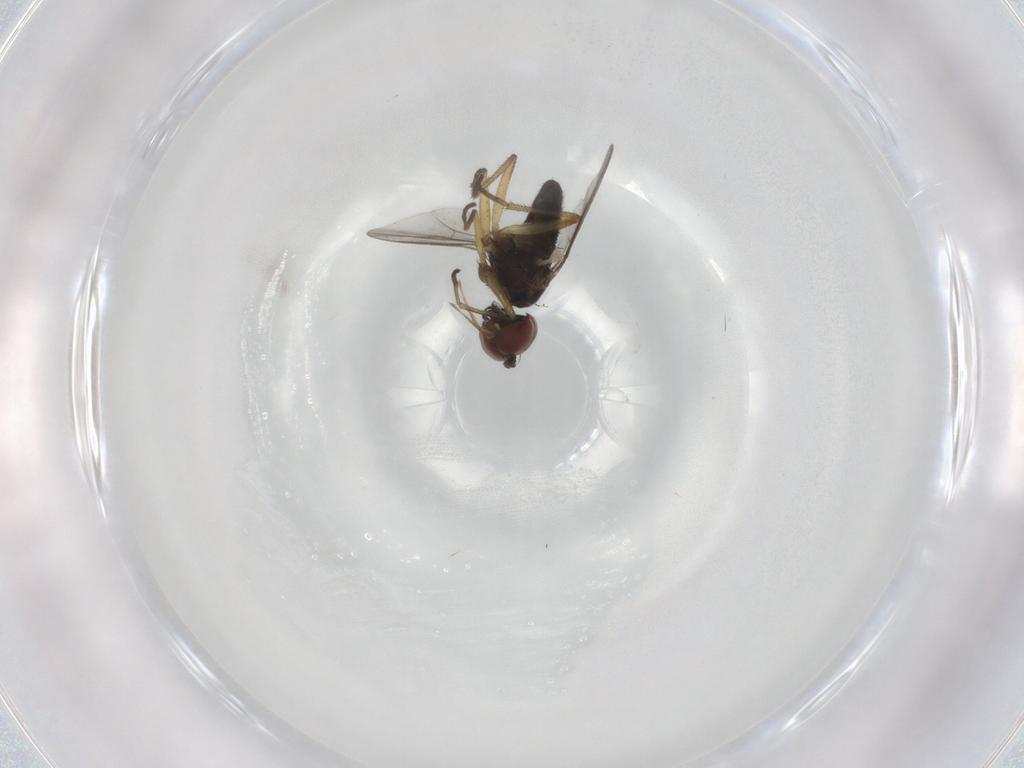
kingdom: Animalia
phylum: Arthropoda
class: Insecta
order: Diptera
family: Dolichopodidae
